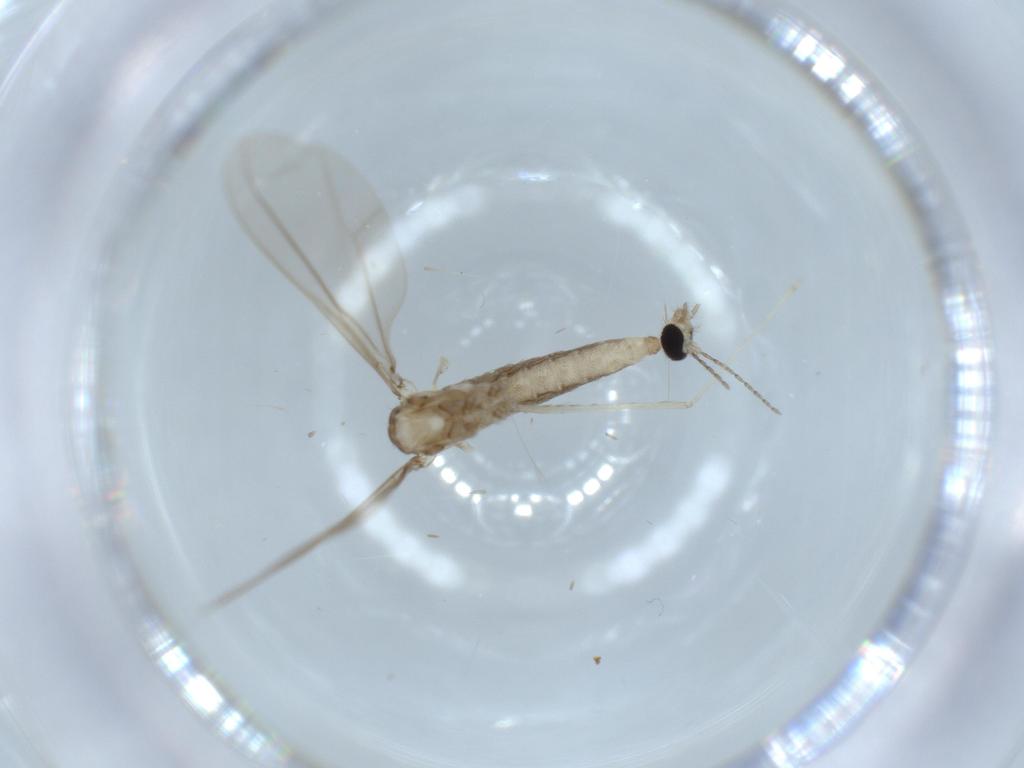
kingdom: Animalia
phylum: Arthropoda
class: Insecta
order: Diptera
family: Cecidomyiidae
